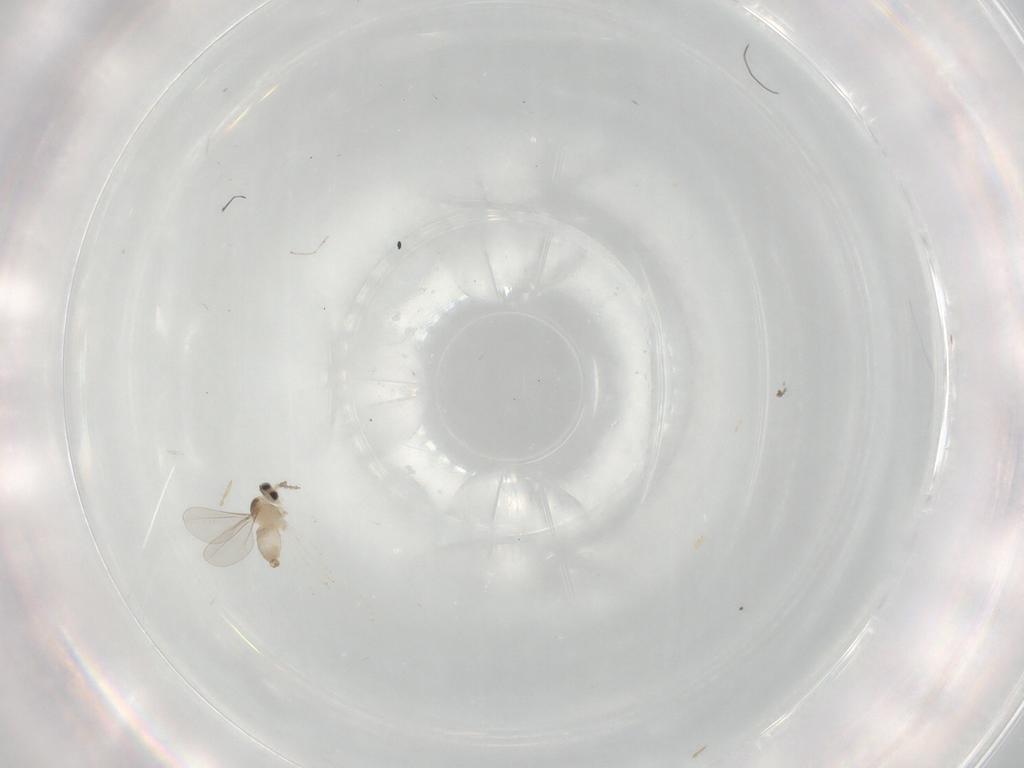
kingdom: Animalia
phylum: Arthropoda
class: Insecta
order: Diptera
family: Cecidomyiidae
